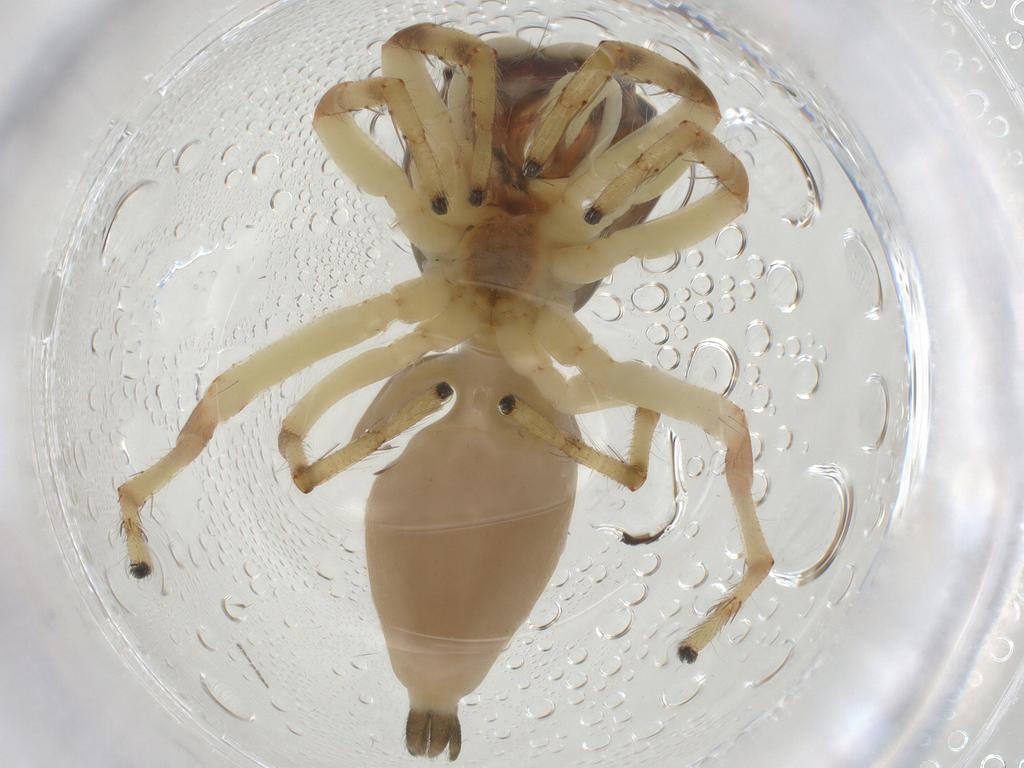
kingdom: Animalia
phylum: Arthropoda
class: Insecta
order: Hemiptera
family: Derbidae
